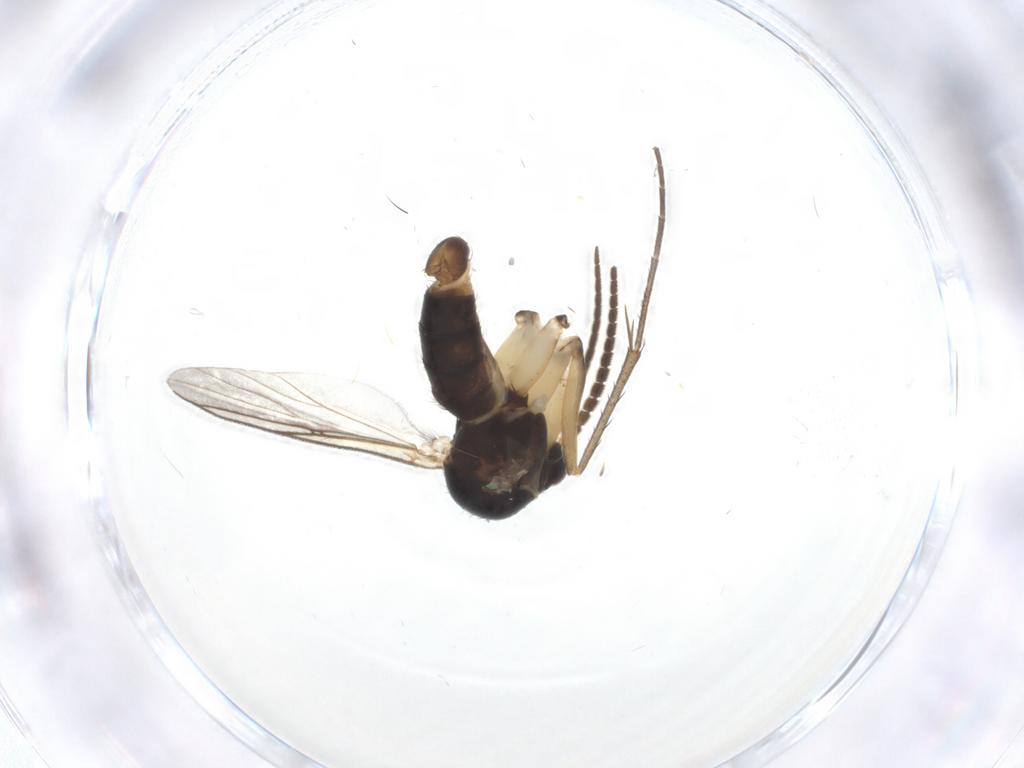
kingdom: Animalia
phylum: Arthropoda
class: Insecta
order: Diptera
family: Mycetophilidae
